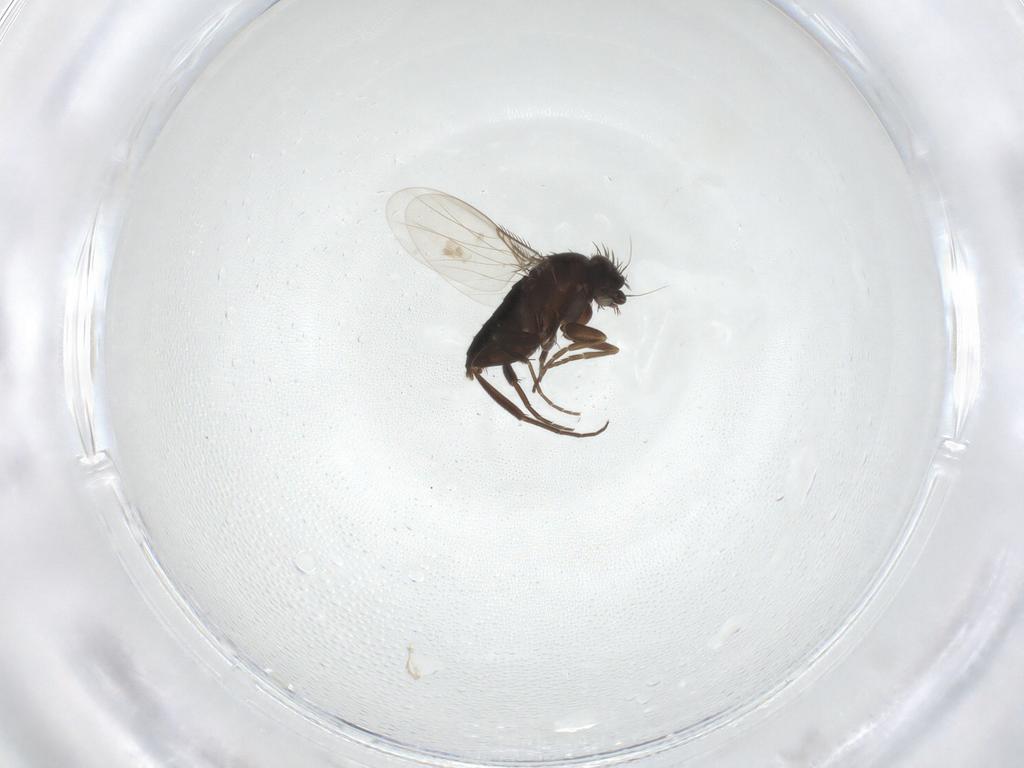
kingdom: Animalia
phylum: Arthropoda
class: Insecta
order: Diptera
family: Phoridae
